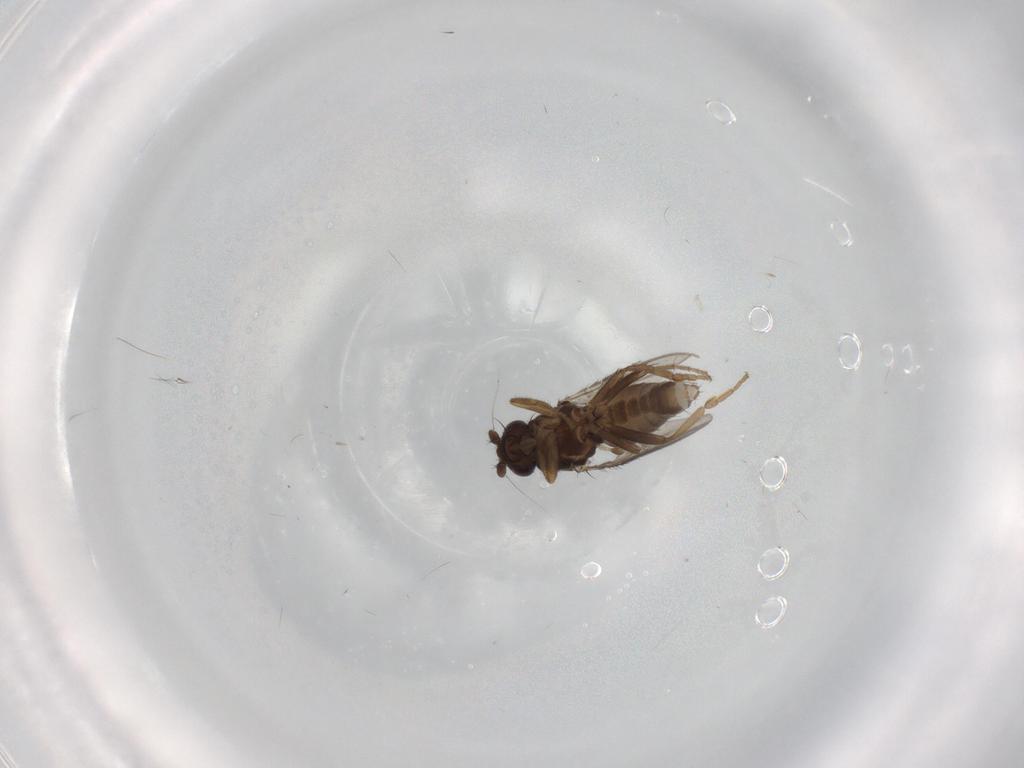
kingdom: Animalia
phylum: Arthropoda
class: Insecta
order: Diptera
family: Sphaeroceridae
